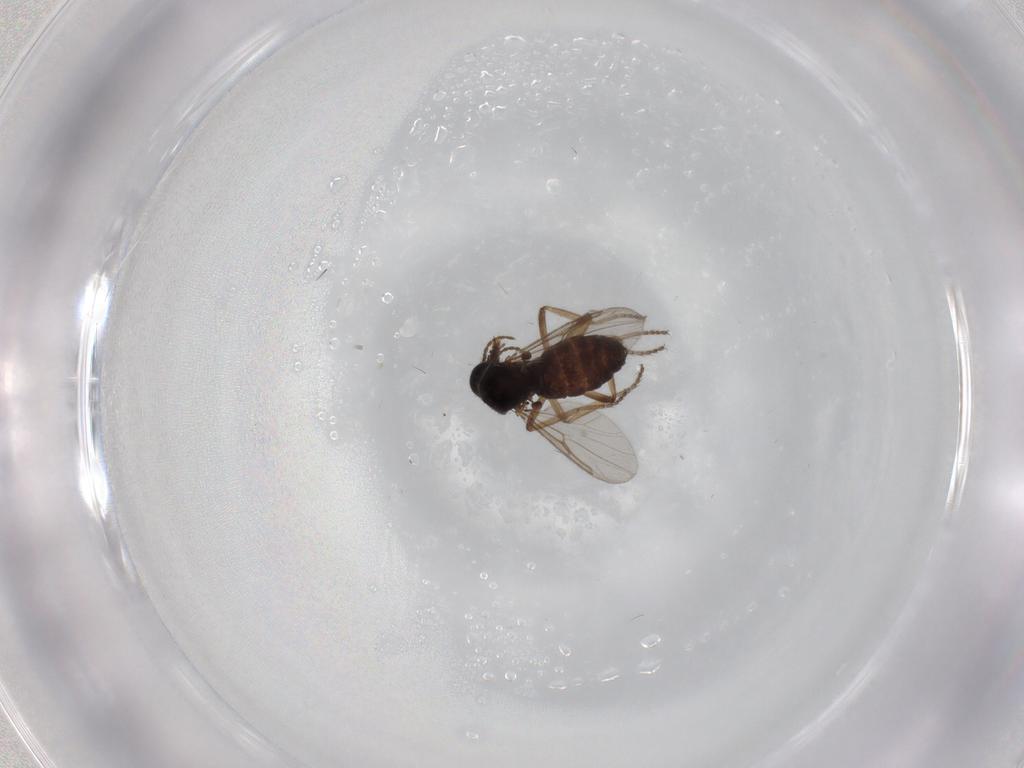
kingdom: Animalia
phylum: Arthropoda
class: Insecta
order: Diptera
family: Ceratopogonidae
